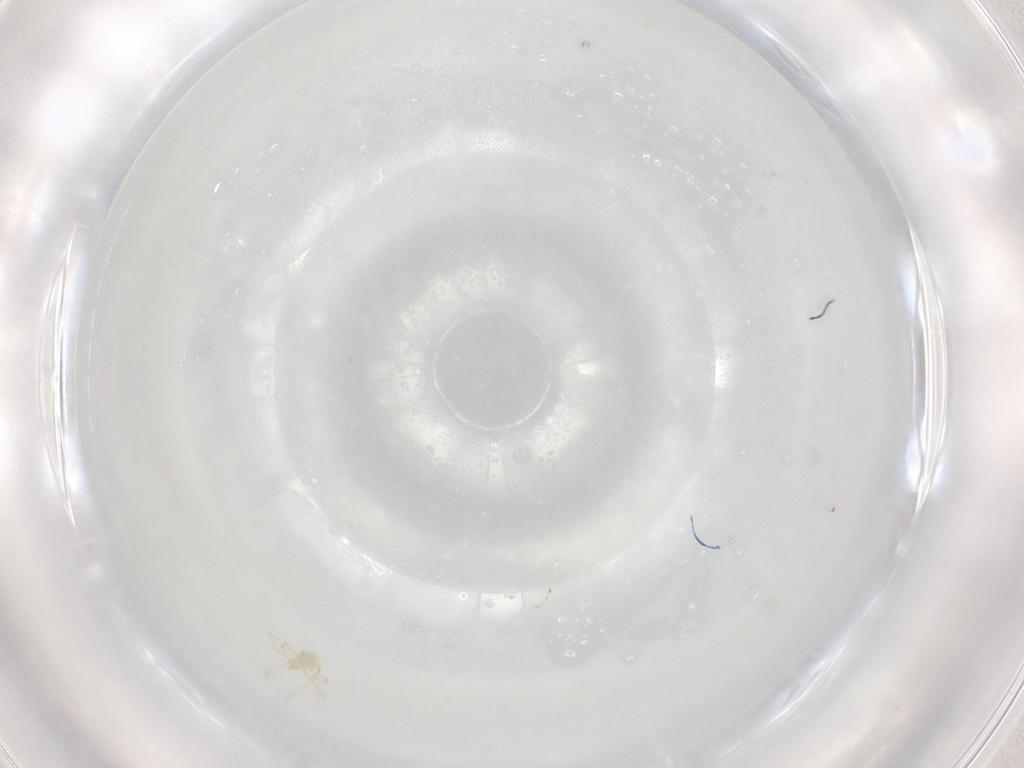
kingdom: Animalia
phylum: Arthropoda
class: Arachnida
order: Trombidiformes
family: Erythraeidae
